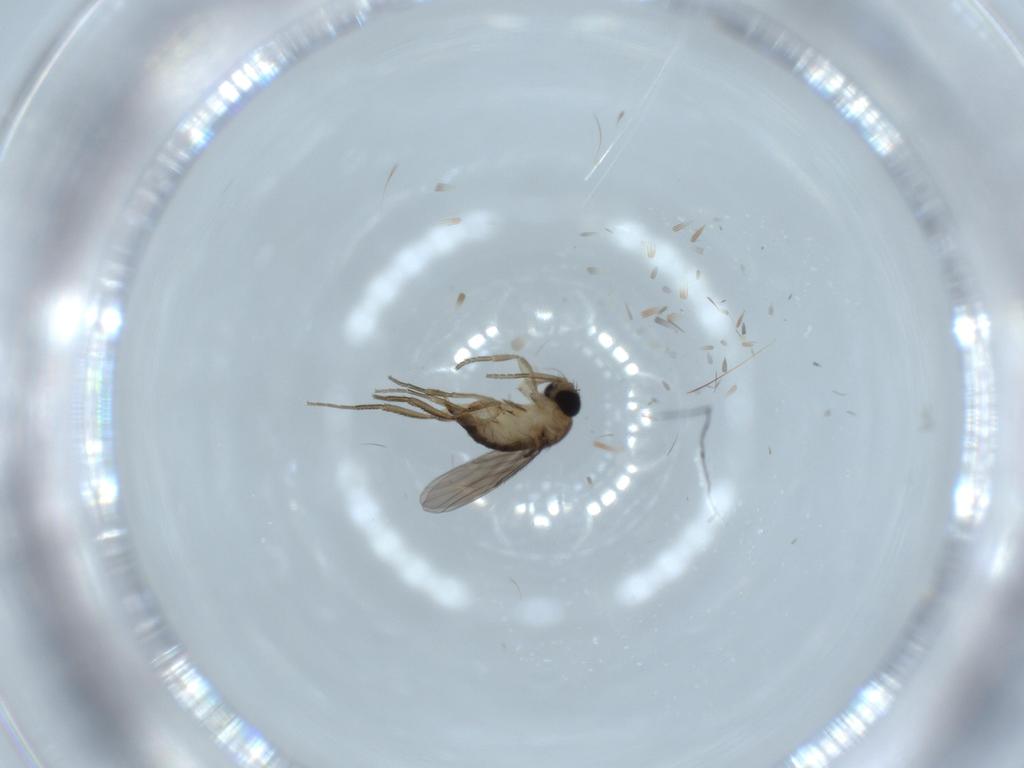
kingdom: Animalia
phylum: Arthropoda
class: Insecta
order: Diptera
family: Phoridae
